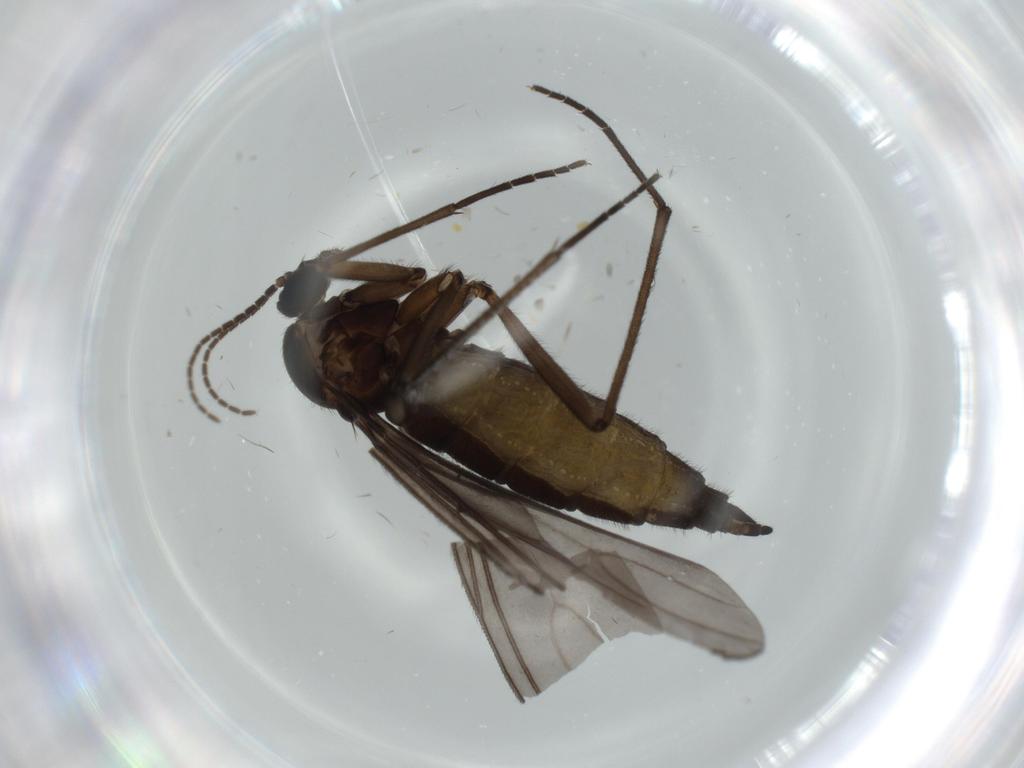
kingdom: Animalia
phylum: Arthropoda
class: Insecta
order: Diptera
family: Sciaridae
